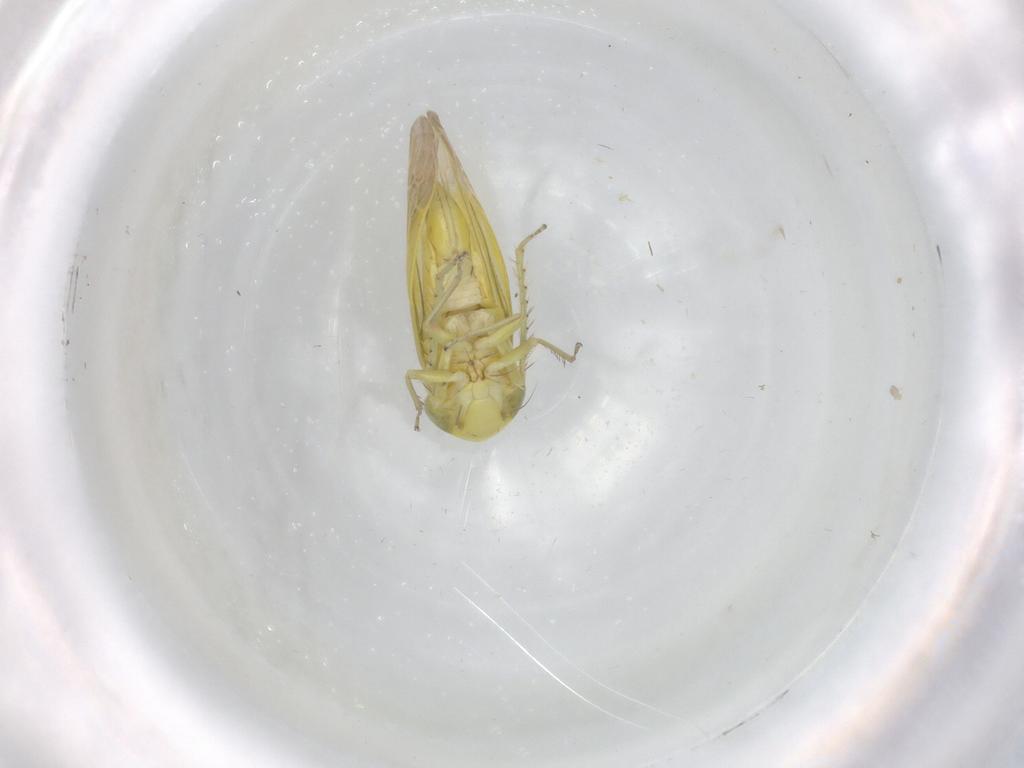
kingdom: Animalia
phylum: Arthropoda
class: Insecta
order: Hemiptera
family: Cicadellidae
